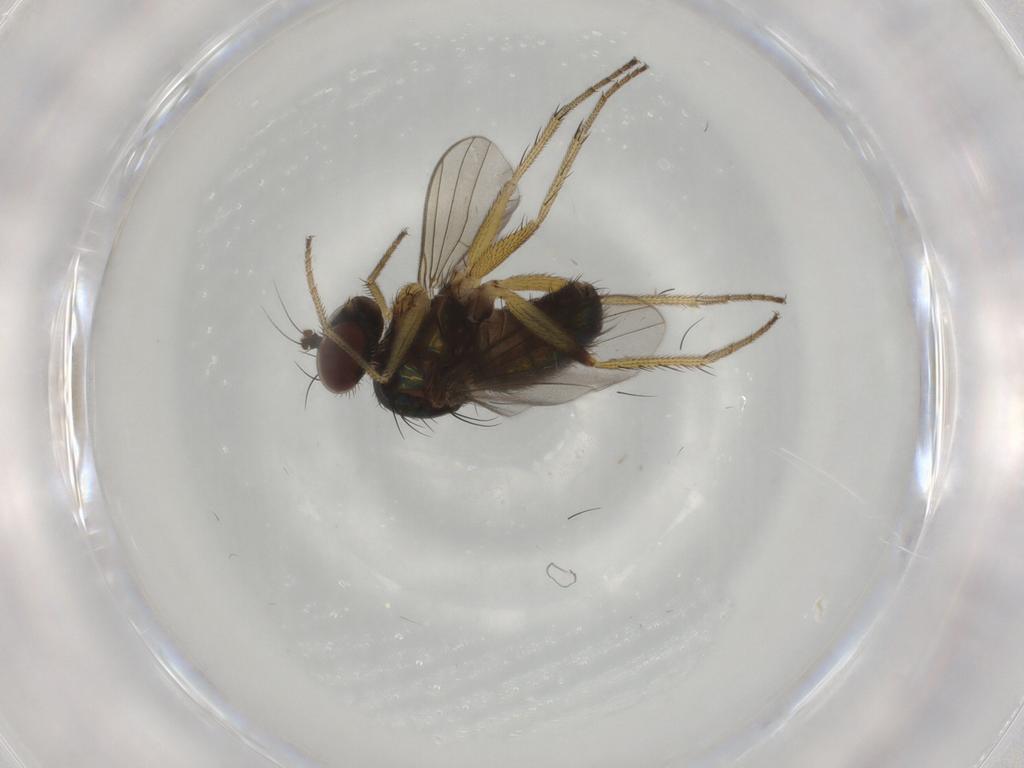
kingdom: Animalia
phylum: Arthropoda
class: Insecta
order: Diptera
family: Dolichopodidae
